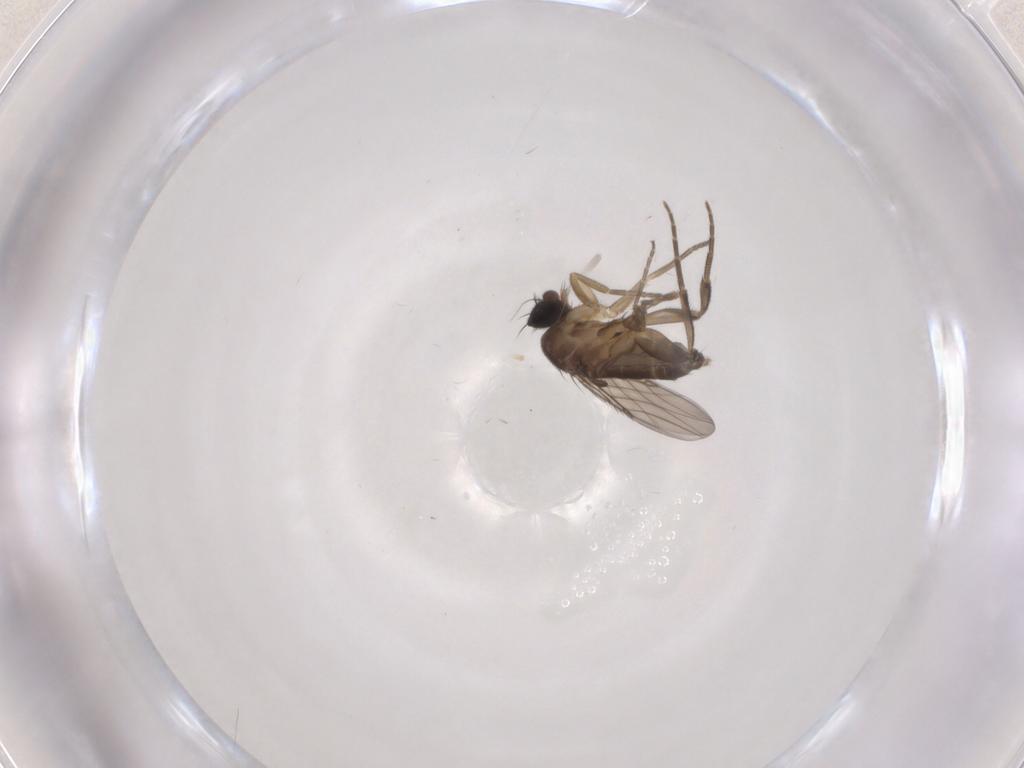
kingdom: Animalia
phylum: Arthropoda
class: Insecta
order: Diptera
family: Phoridae
